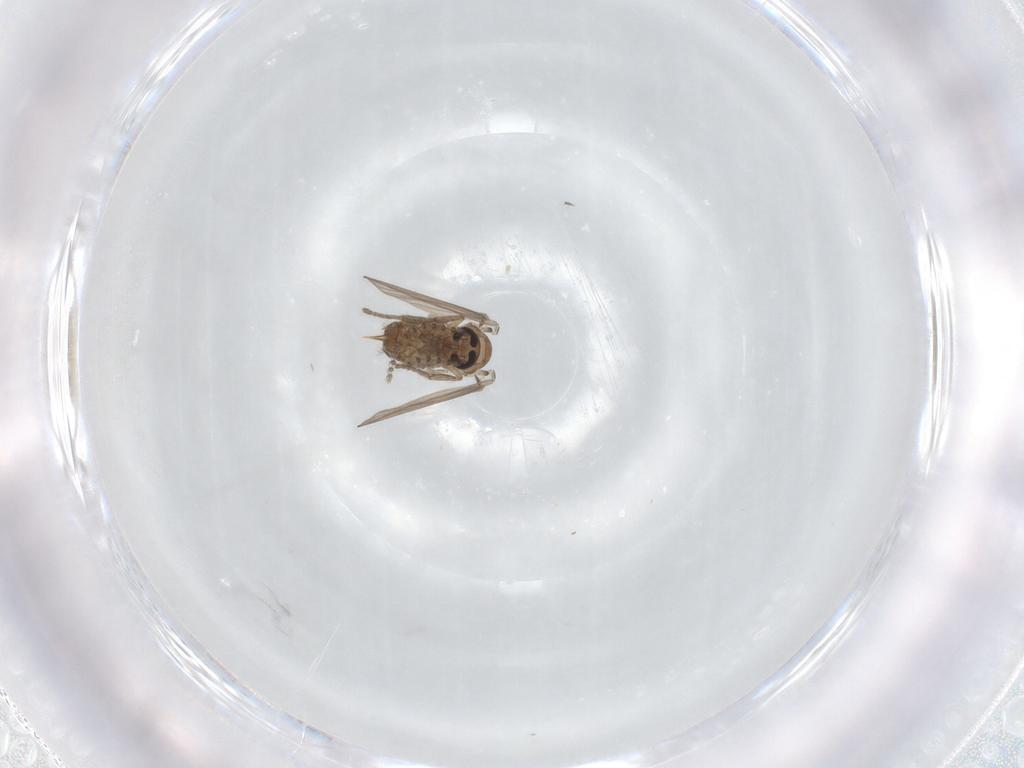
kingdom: Animalia
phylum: Arthropoda
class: Insecta
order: Diptera
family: Psychodidae
